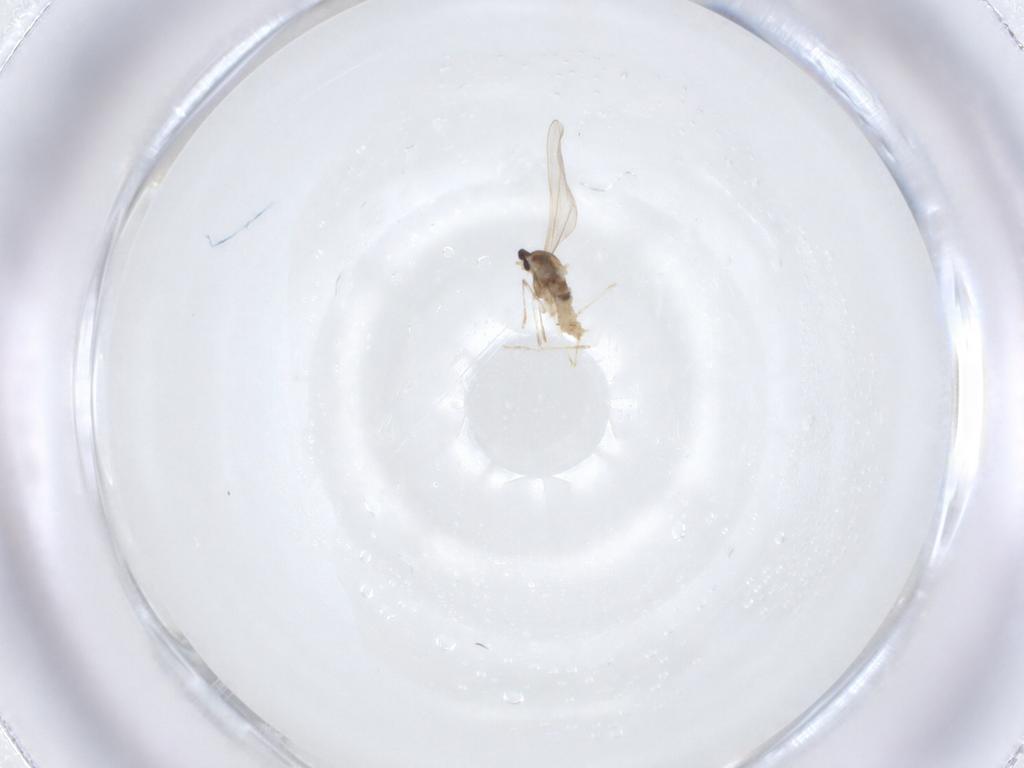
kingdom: Animalia
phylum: Arthropoda
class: Insecta
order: Diptera
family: Cecidomyiidae
